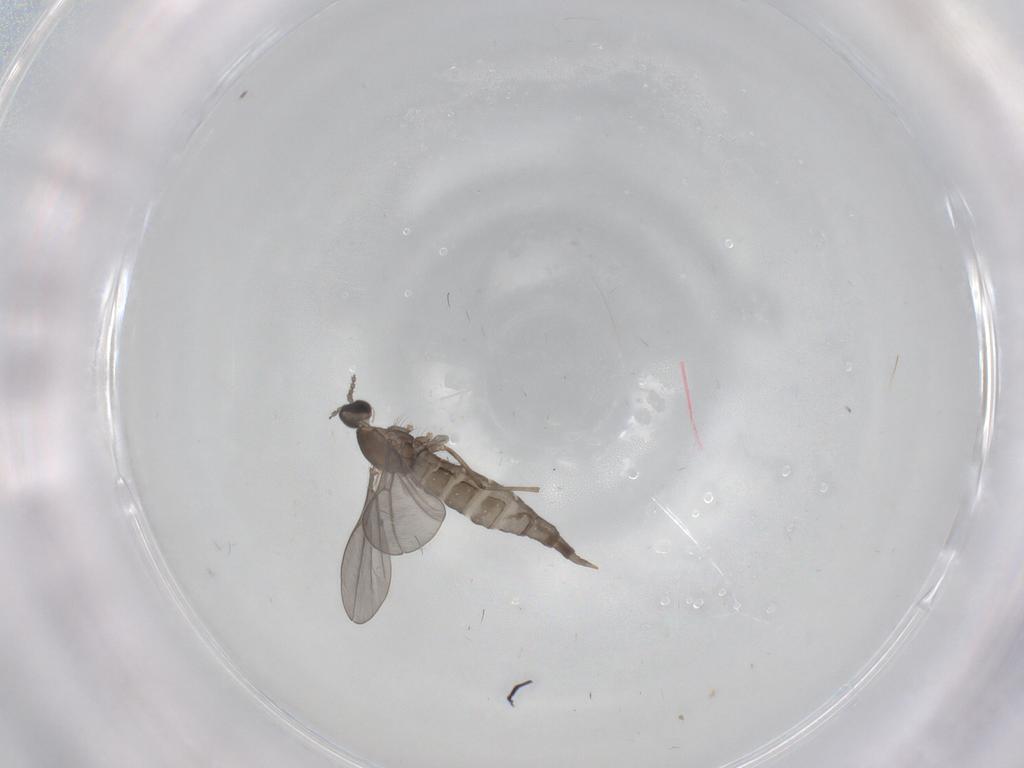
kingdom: Animalia
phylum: Arthropoda
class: Insecta
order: Diptera
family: Cecidomyiidae
